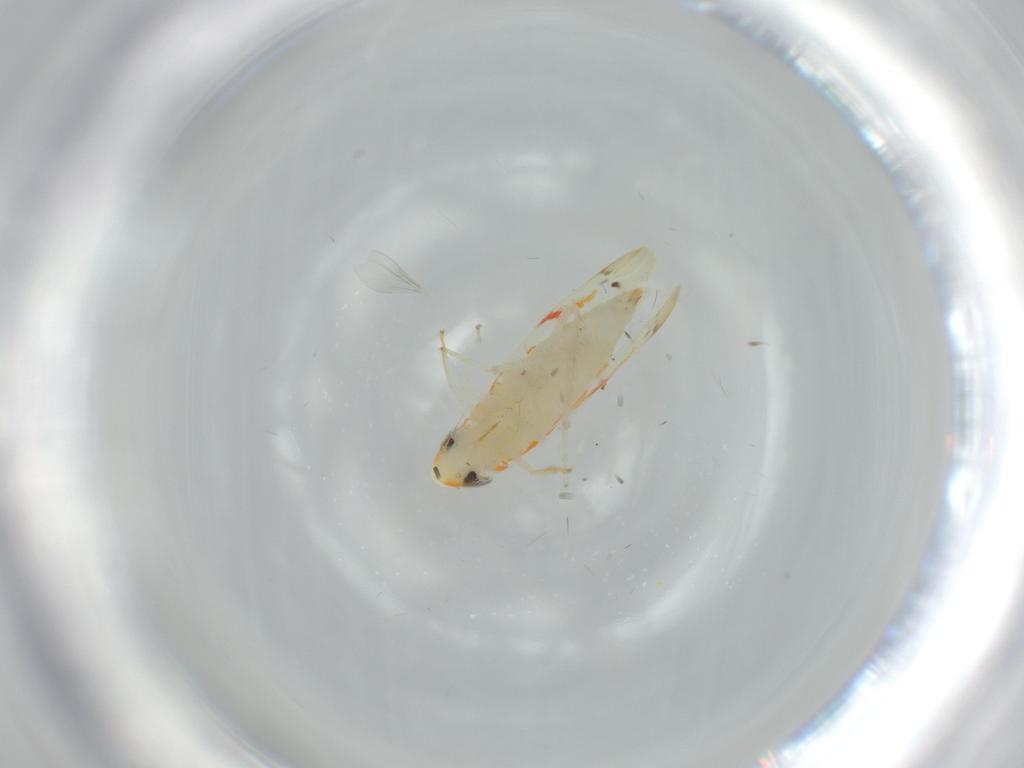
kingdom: Animalia
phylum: Arthropoda
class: Insecta
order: Hemiptera
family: Cicadellidae
